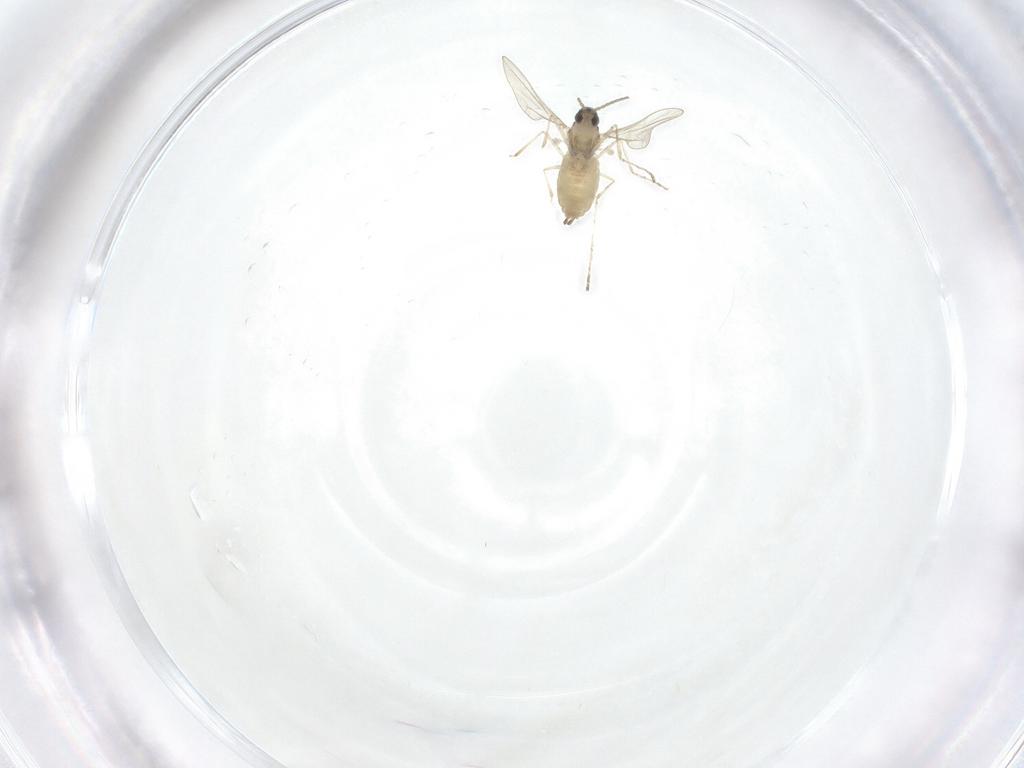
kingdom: Animalia
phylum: Arthropoda
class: Insecta
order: Diptera
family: Cecidomyiidae
